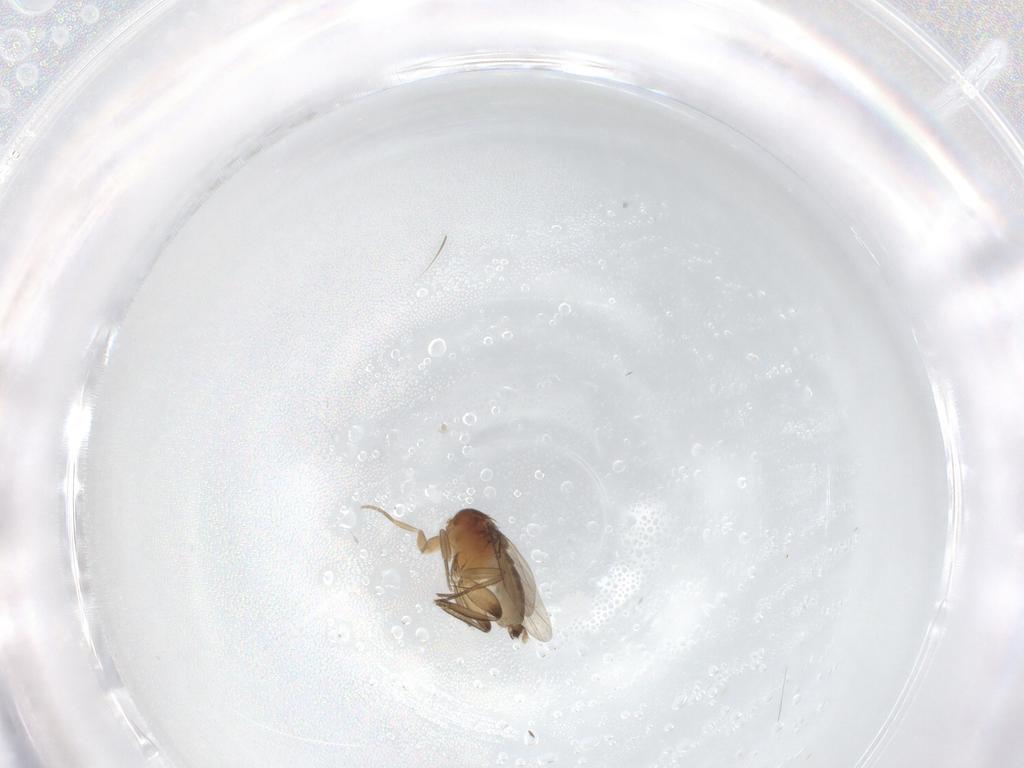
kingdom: Animalia
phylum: Arthropoda
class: Insecta
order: Diptera
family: Phoridae
